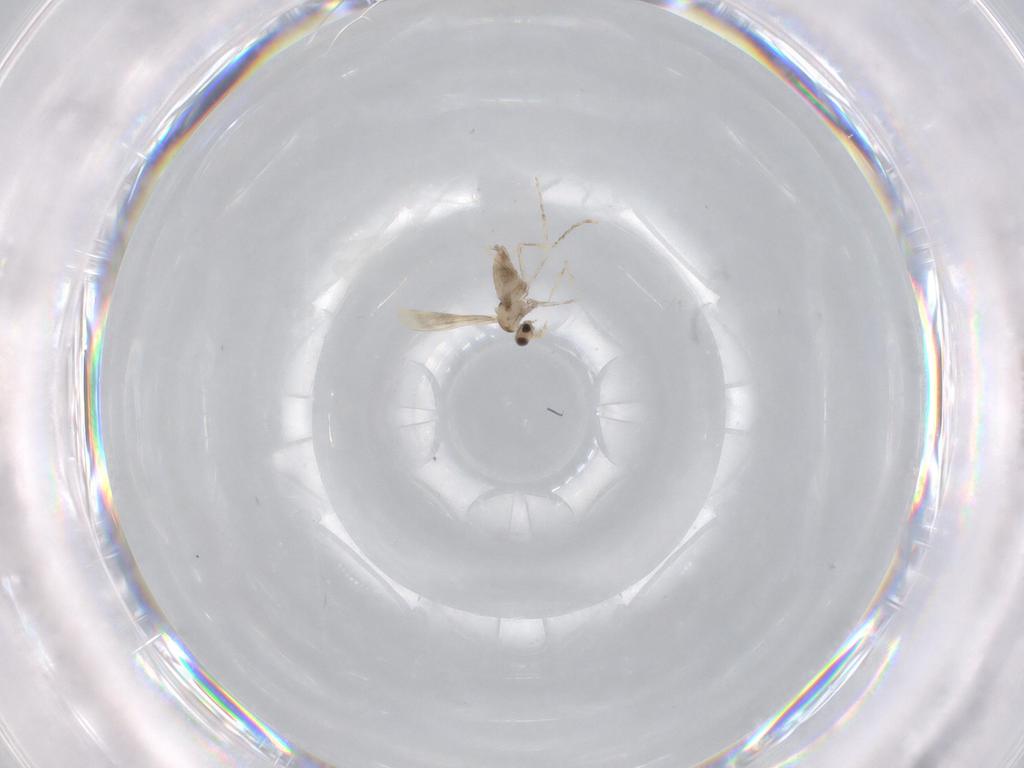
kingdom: Animalia
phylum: Arthropoda
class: Insecta
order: Diptera
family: Cecidomyiidae
